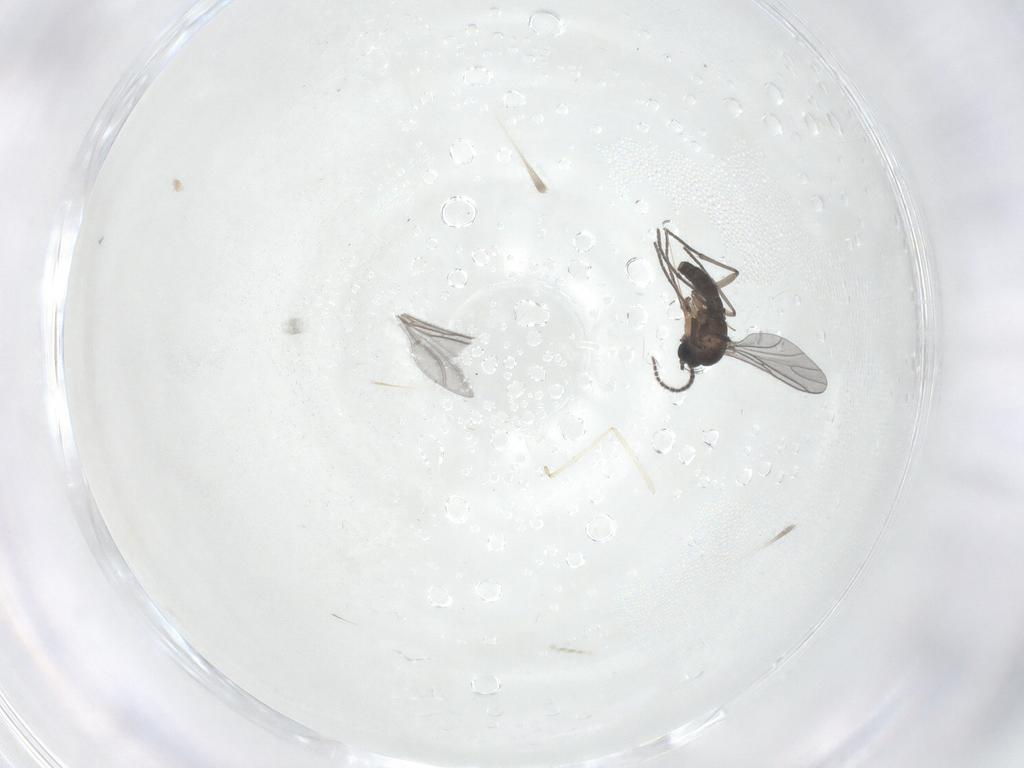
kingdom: Animalia
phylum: Arthropoda
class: Insecta
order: Diptera
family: Sciaridae
